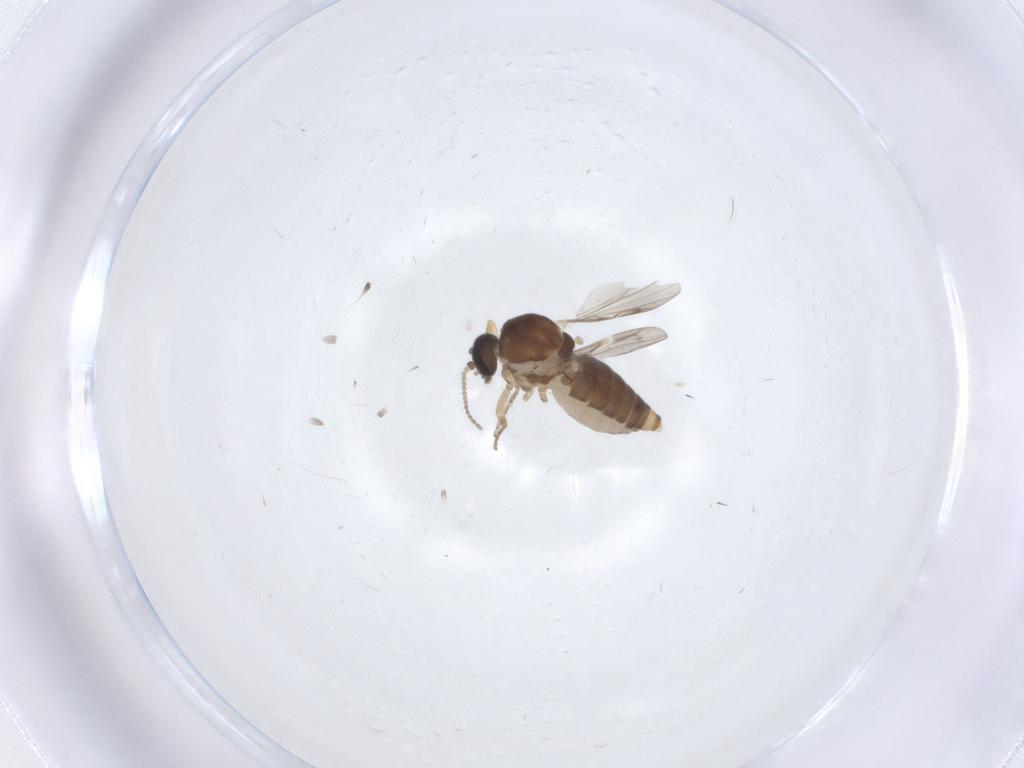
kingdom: Animalia
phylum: Arthropoda
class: Insecta
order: Diptera
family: Ceratopogonidae
